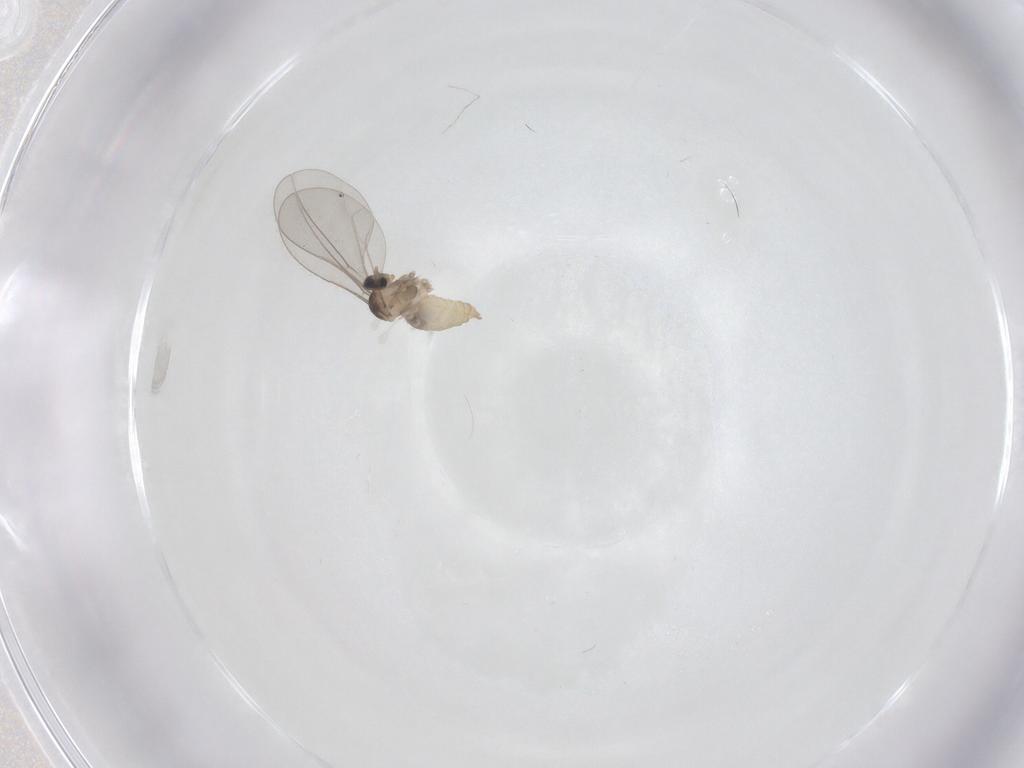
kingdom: Animalia
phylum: Arthropoda
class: Insecta
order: Diptera
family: Cecidomyiidae
